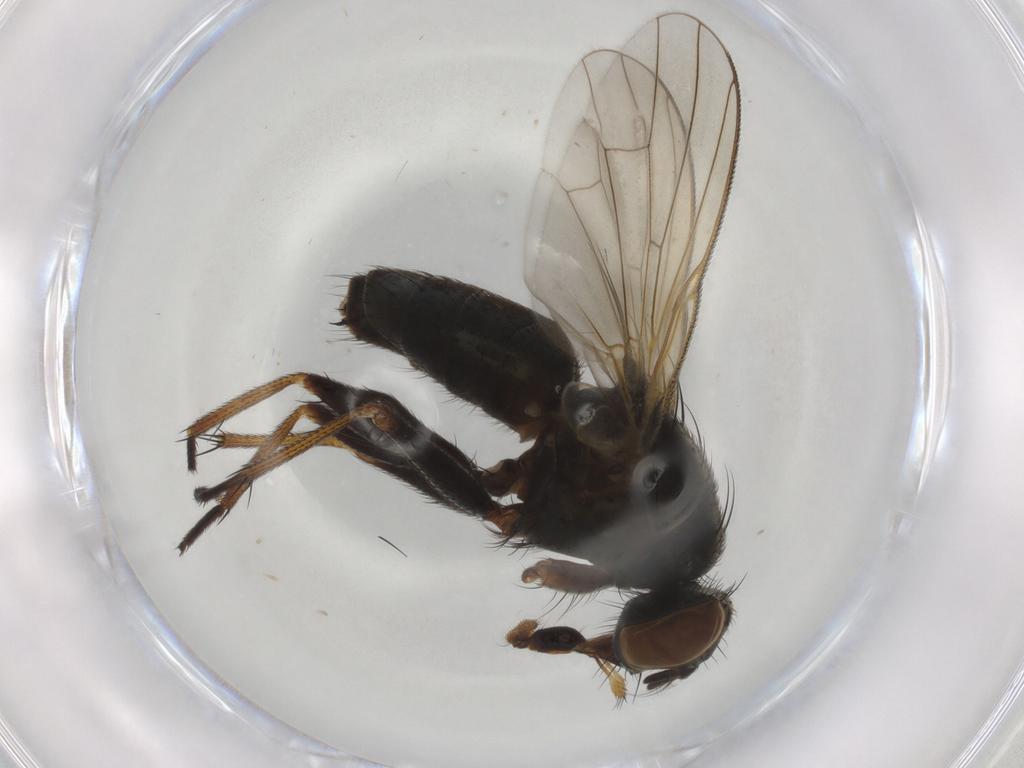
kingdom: Animalia
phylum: Arthropoda
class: Insecta
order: Diptera
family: Muscidae
